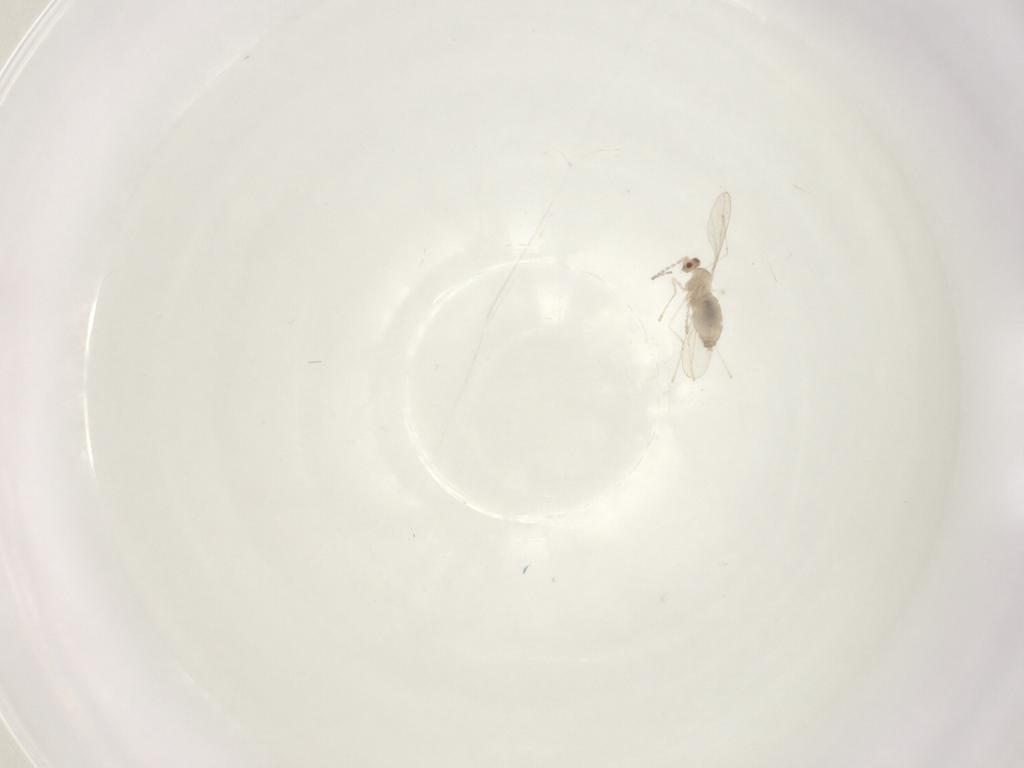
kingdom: Animalia
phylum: Arthropoda
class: Insecta
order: Diptera
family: Cecidomyiidae
